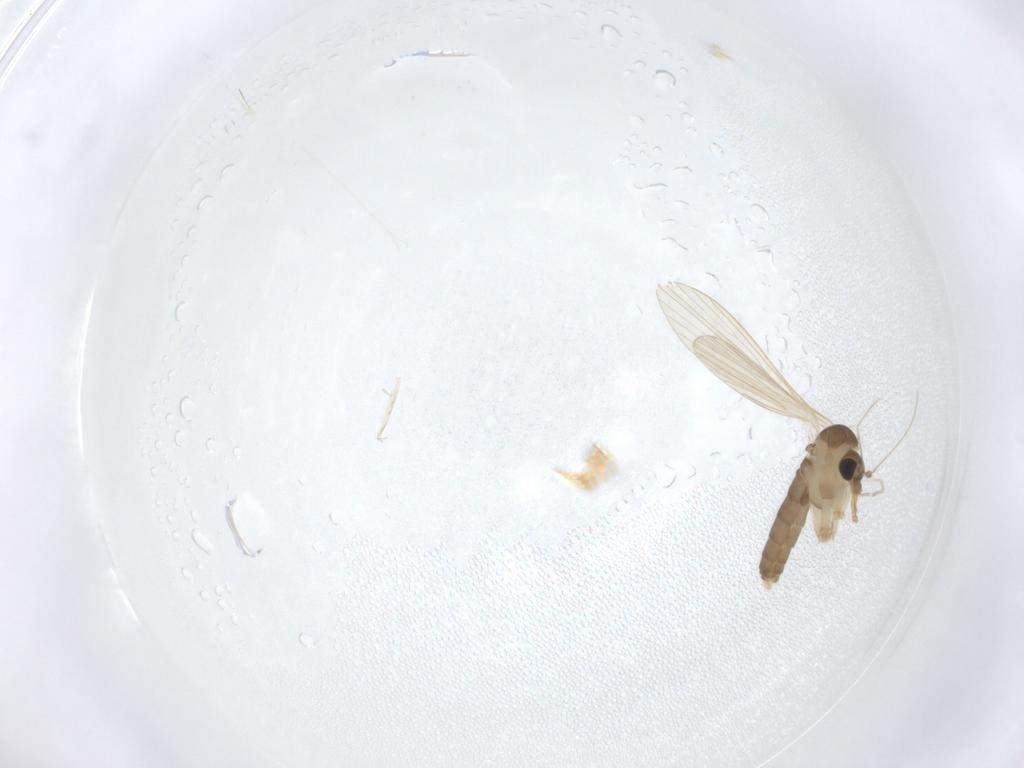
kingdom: Animalia
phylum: Arthropoda
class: Insecta
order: Diptera
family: Psychodidae
